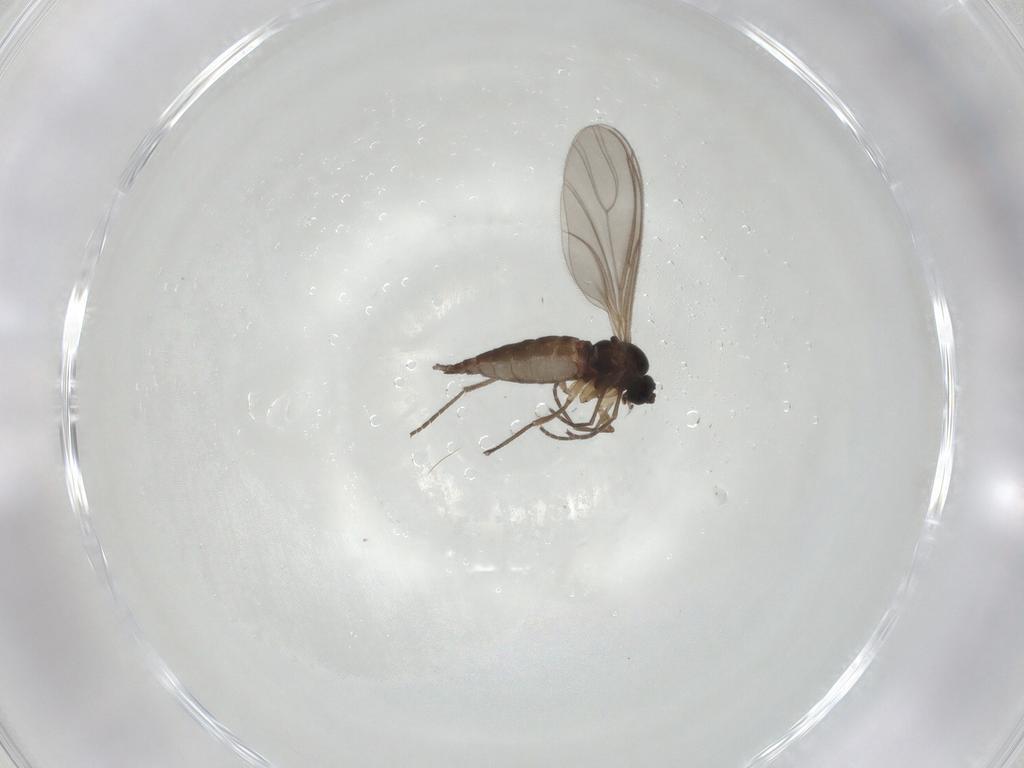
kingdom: Animalia
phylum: Arthropoda
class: Insecta
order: Diptera
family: Sciaridae
